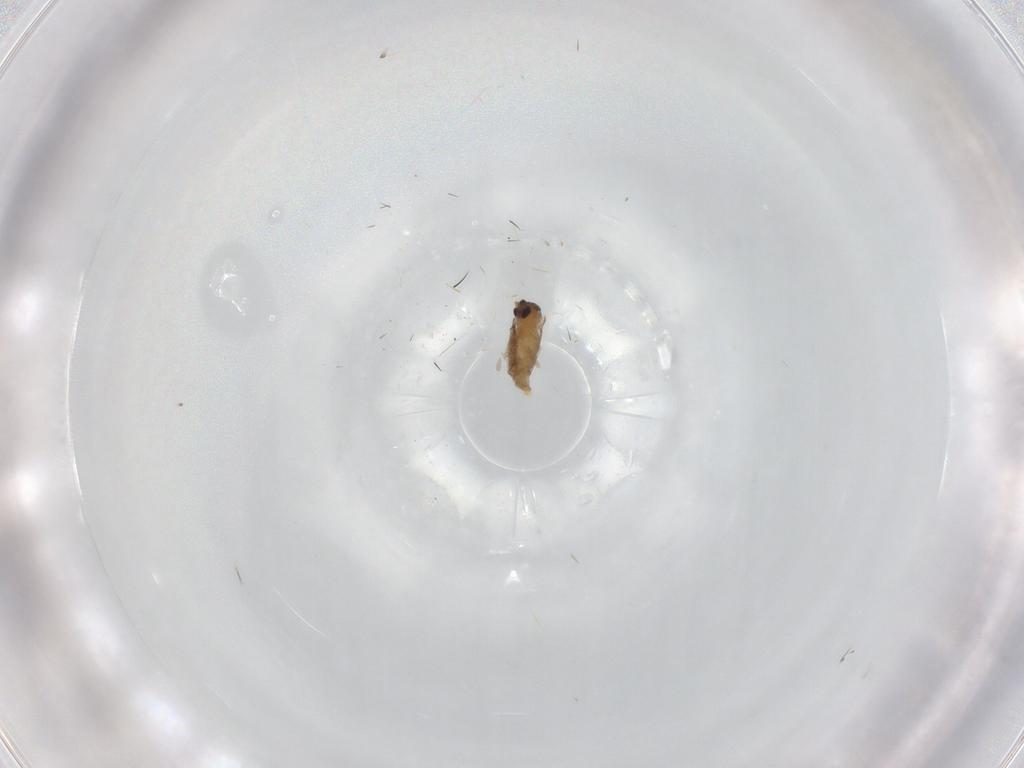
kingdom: Animalia
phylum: Arthropoda
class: Insecta
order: Diptera
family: Cecidomyiidae
